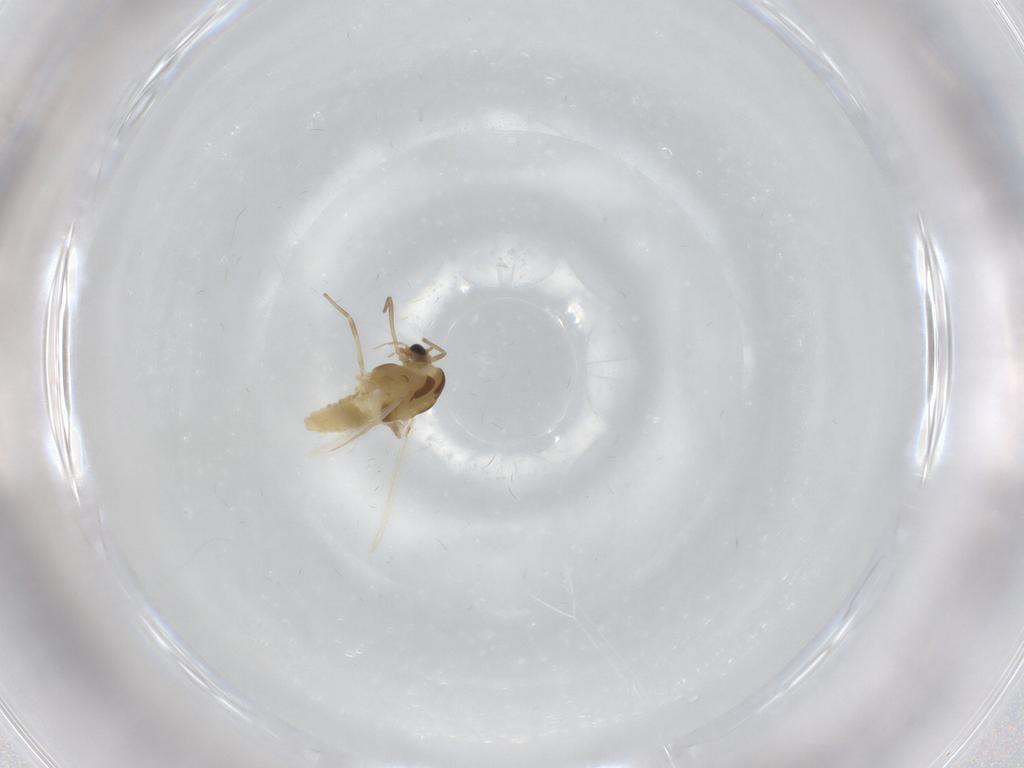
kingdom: Animalia
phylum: Arthropoda
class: Insecta
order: Diptera
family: Chironomidae
